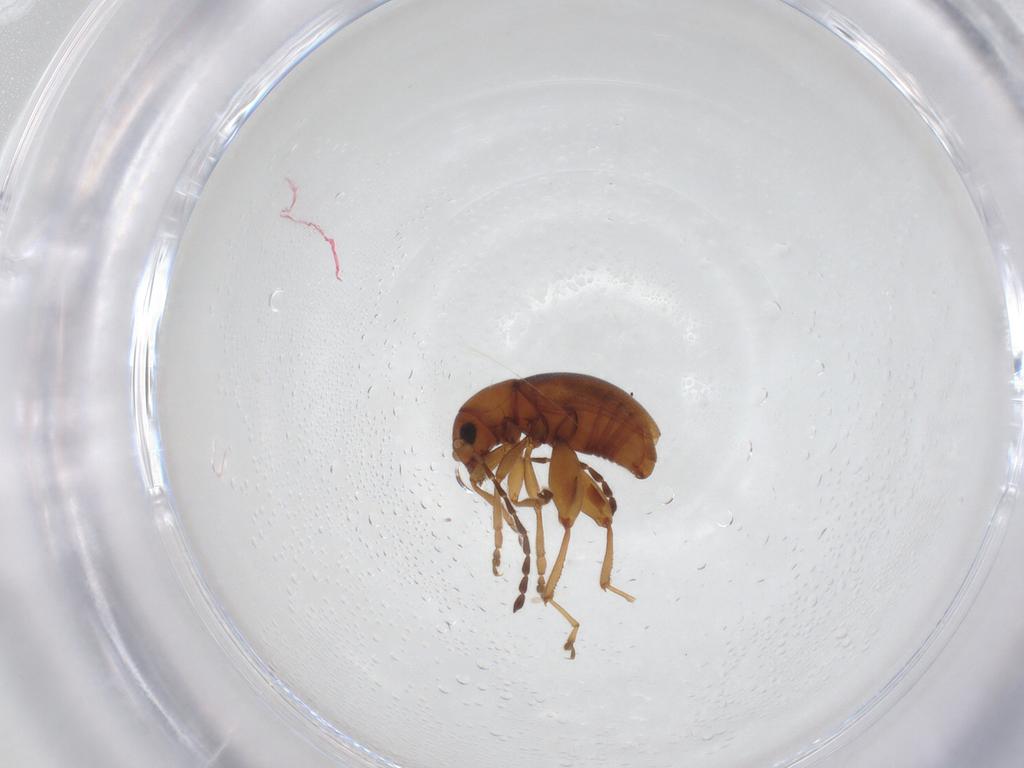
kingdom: Animalia
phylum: Arthropoda
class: Insecta
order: Coleoptera
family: Chrysomelidae
